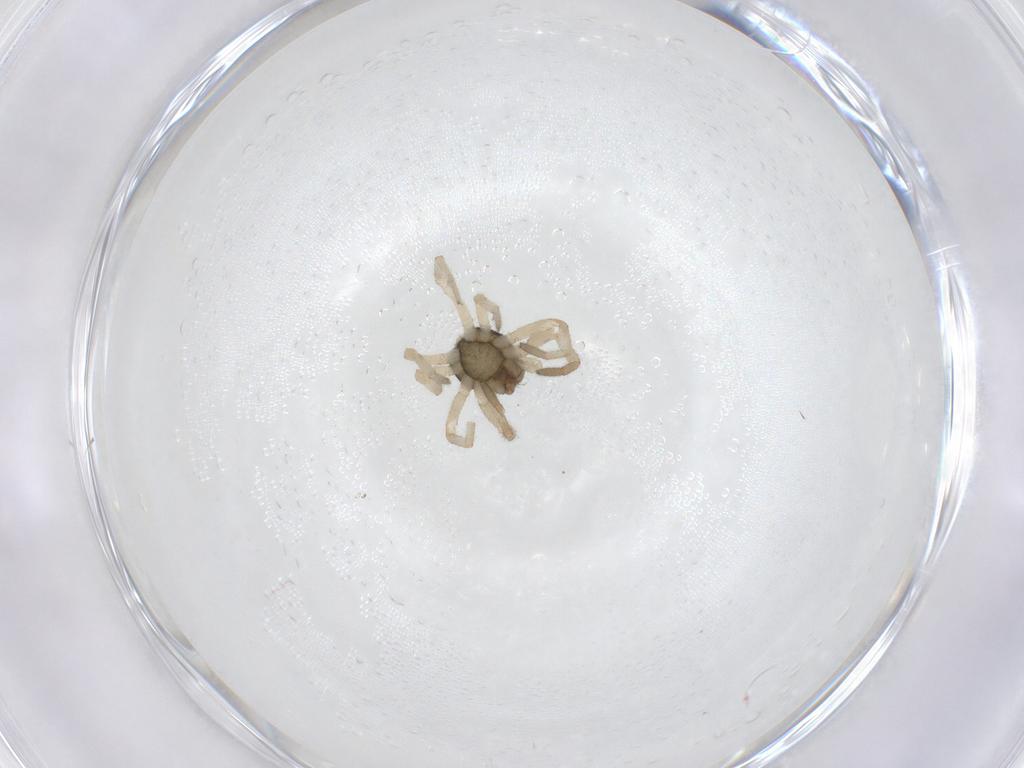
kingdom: Animalia
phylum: Arthropoda
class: Arachnida
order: Araneae
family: Trachelidae
